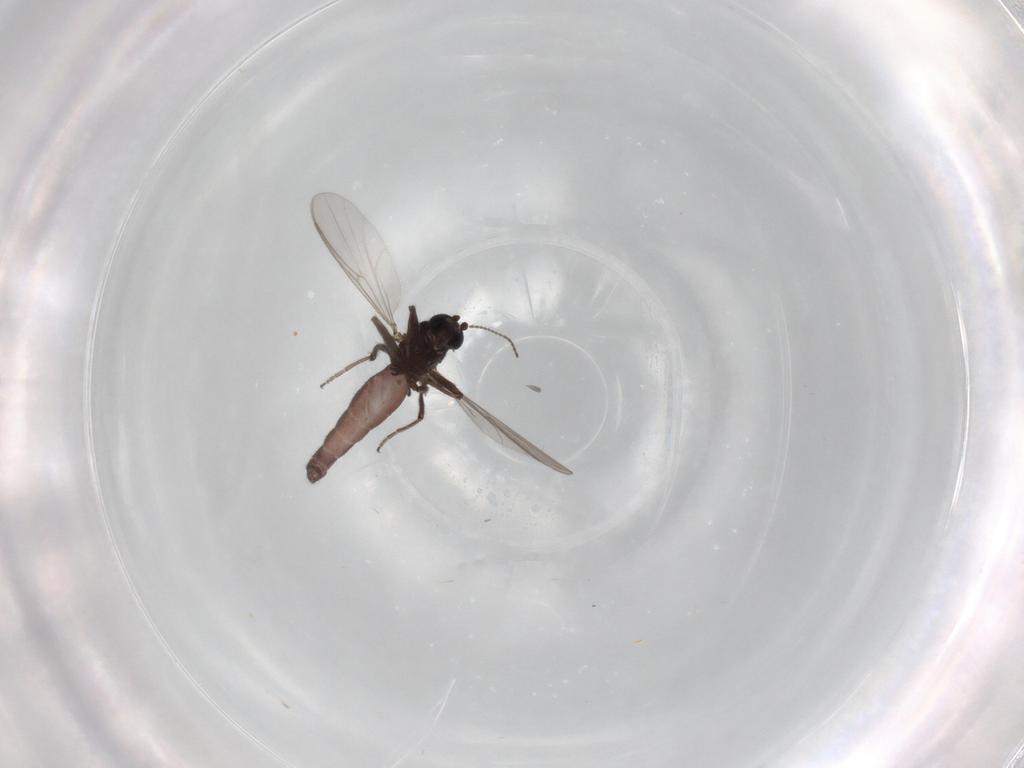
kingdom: Animalia
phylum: Arthropoda
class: Insecta
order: Diptera
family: Ceratopogonidae
